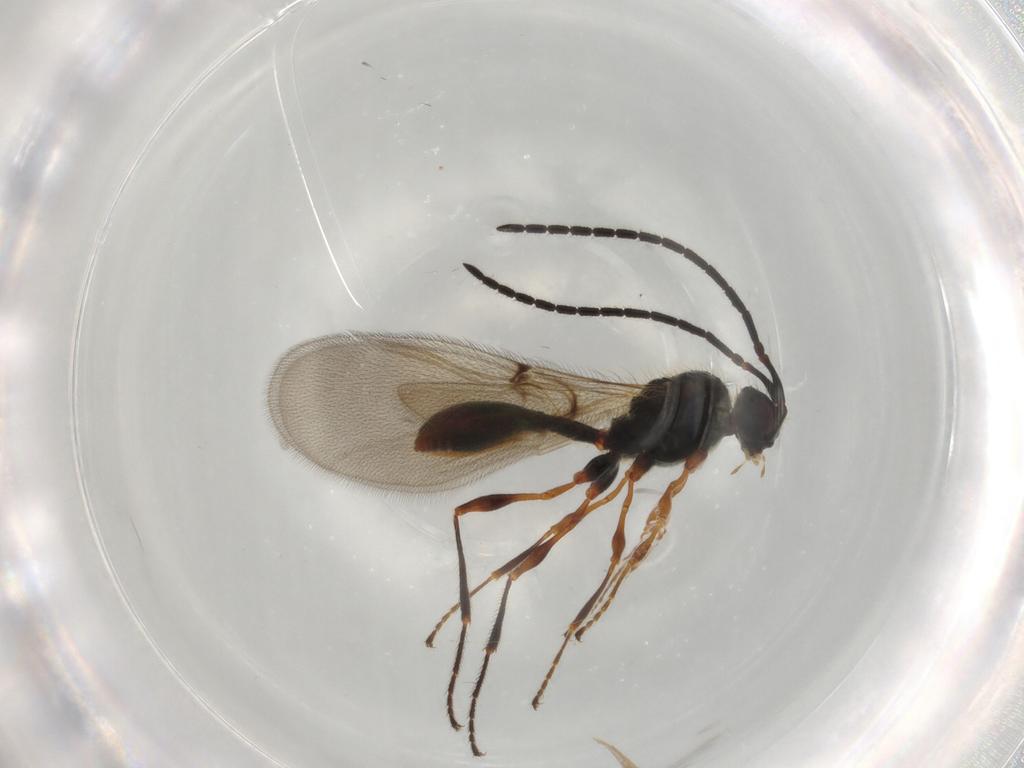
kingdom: Animalia
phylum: Arthropoda
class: Insecta
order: Hymenoptera
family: Diapriidae
